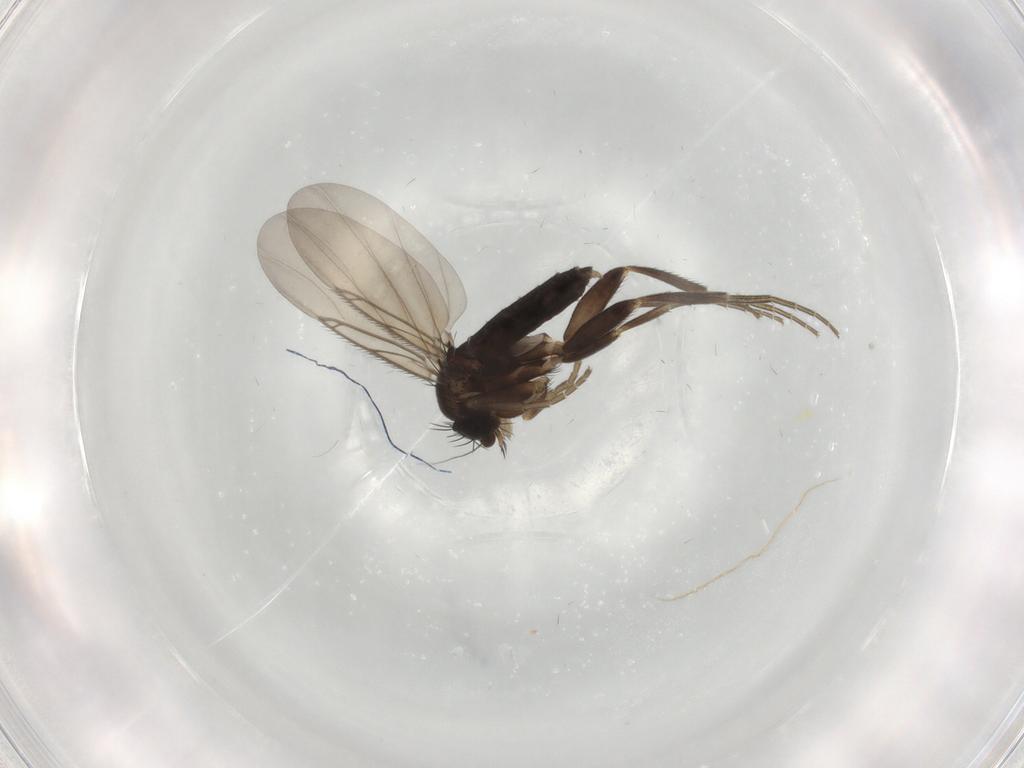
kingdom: Animalia
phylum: Arthropoda
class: Insecta
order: Diptera
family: Phoridae
